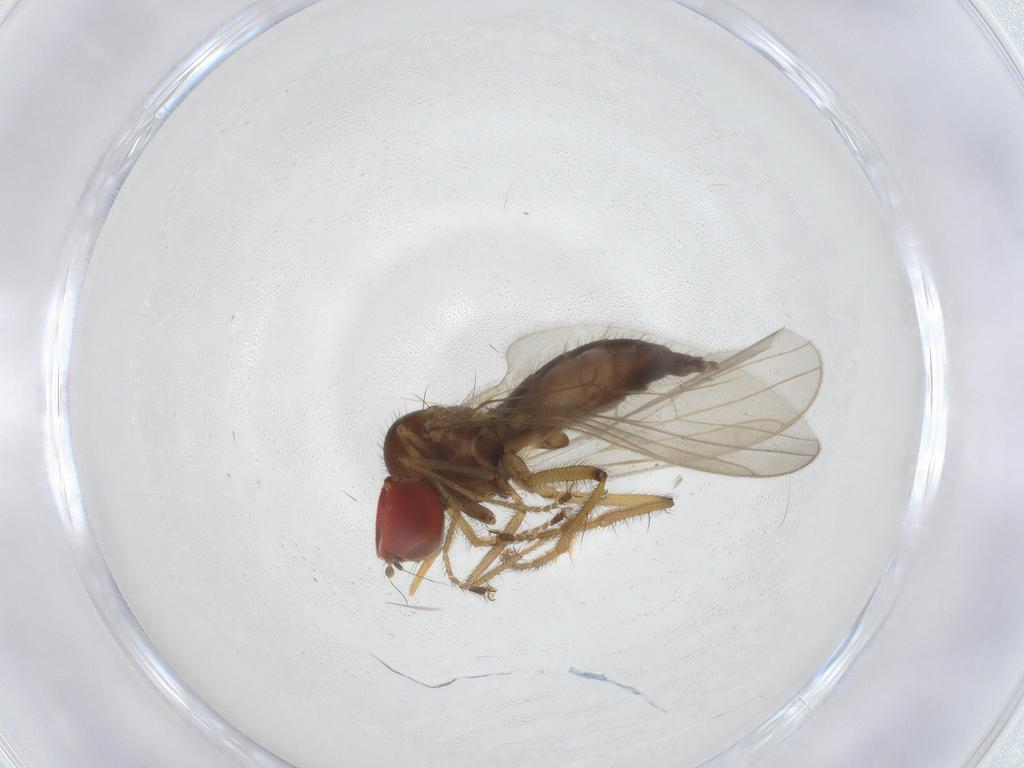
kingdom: Animalia
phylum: Arthropoda
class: Insecta
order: Diptera
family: Hybotidae
